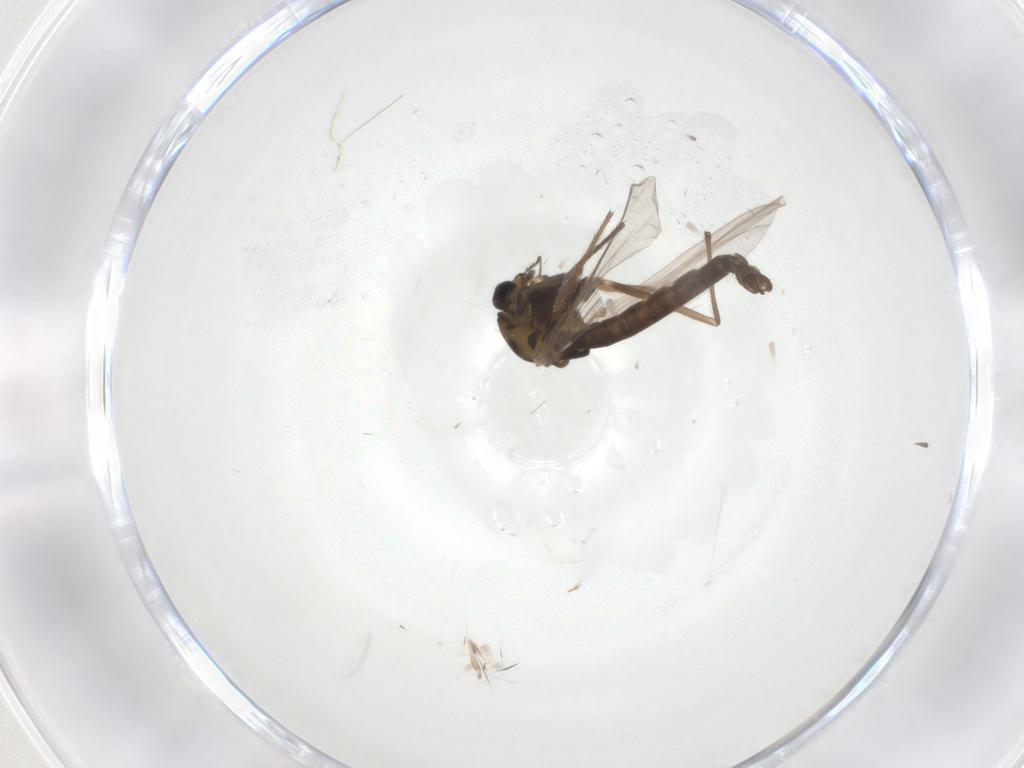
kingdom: Animalia
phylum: Arthropoda
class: Insecta
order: Diptera
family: Chironomidae
